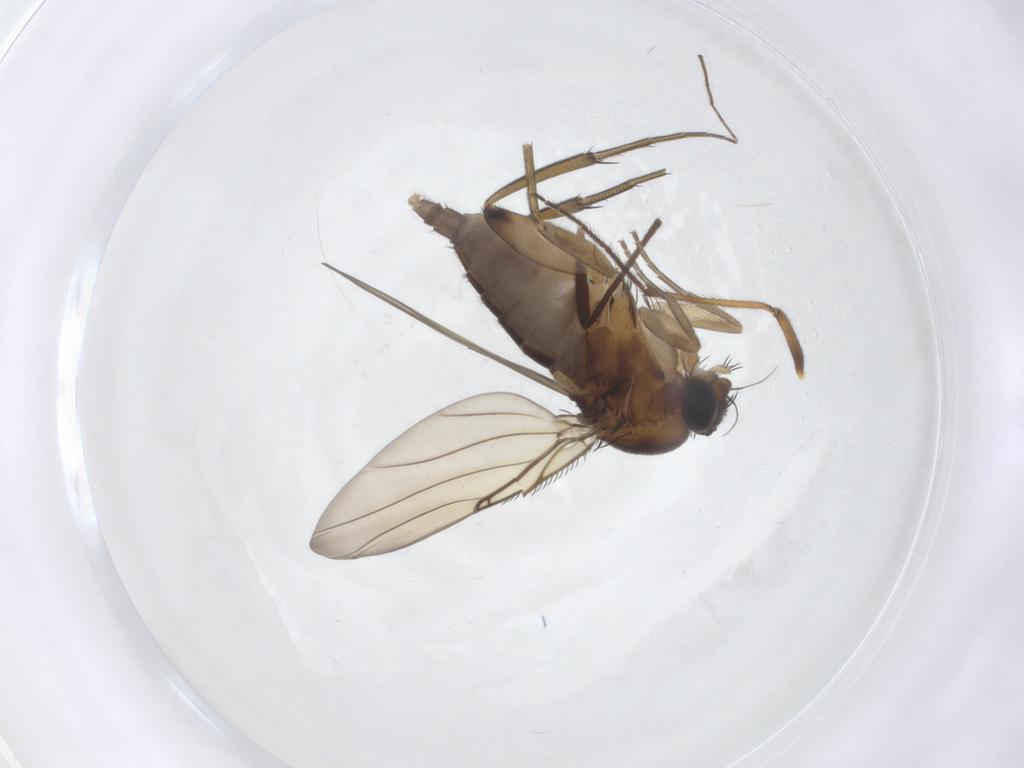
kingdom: Animalia
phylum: Arthropoda
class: Insecta
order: Diptera
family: Phoridae
